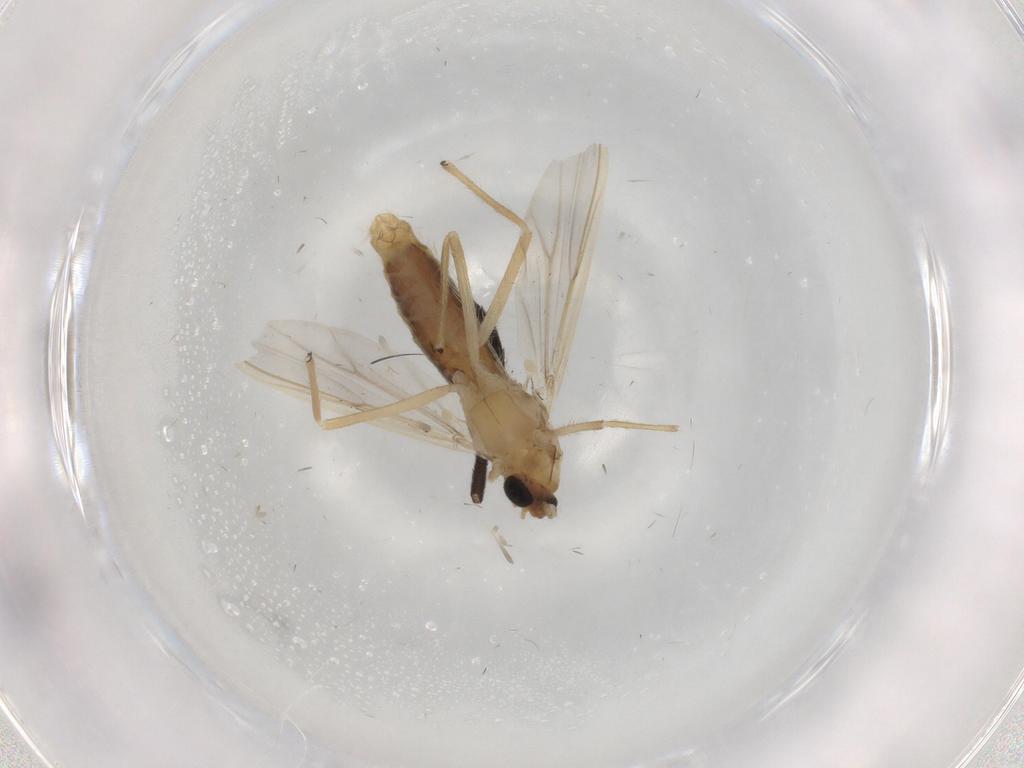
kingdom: Animalia
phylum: Arthropoda
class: Insecta
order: Diptera
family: Chironomidae
